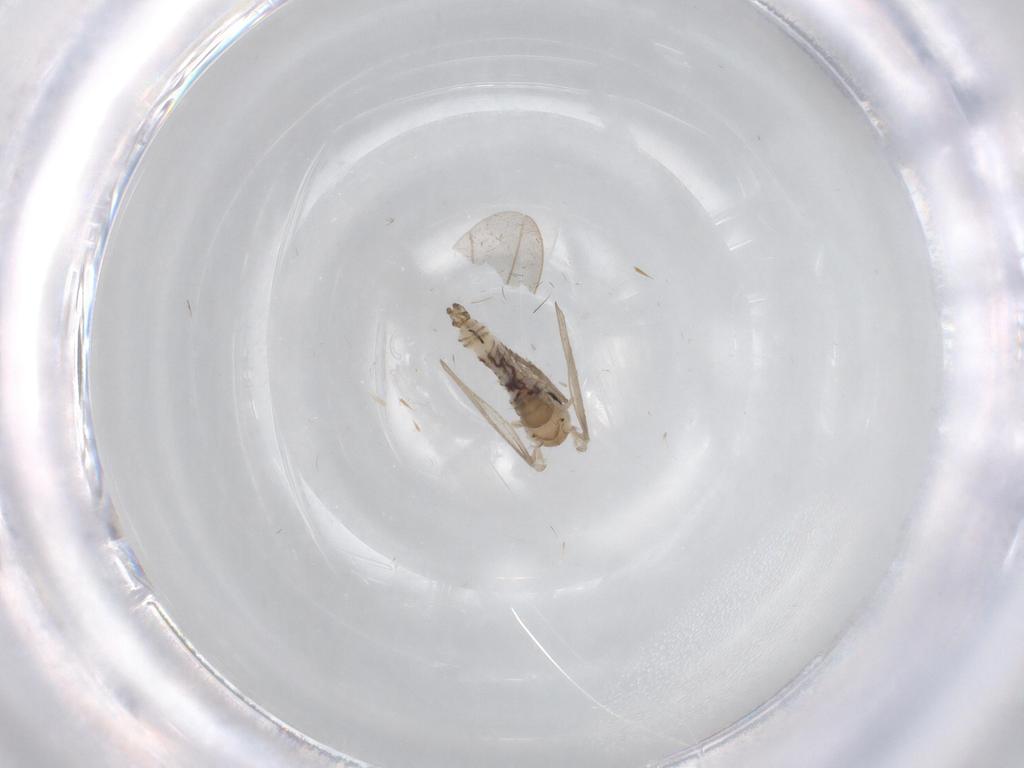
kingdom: Animalia
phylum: Arthropoda
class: Insecta
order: Diptera
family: Psychodidae
